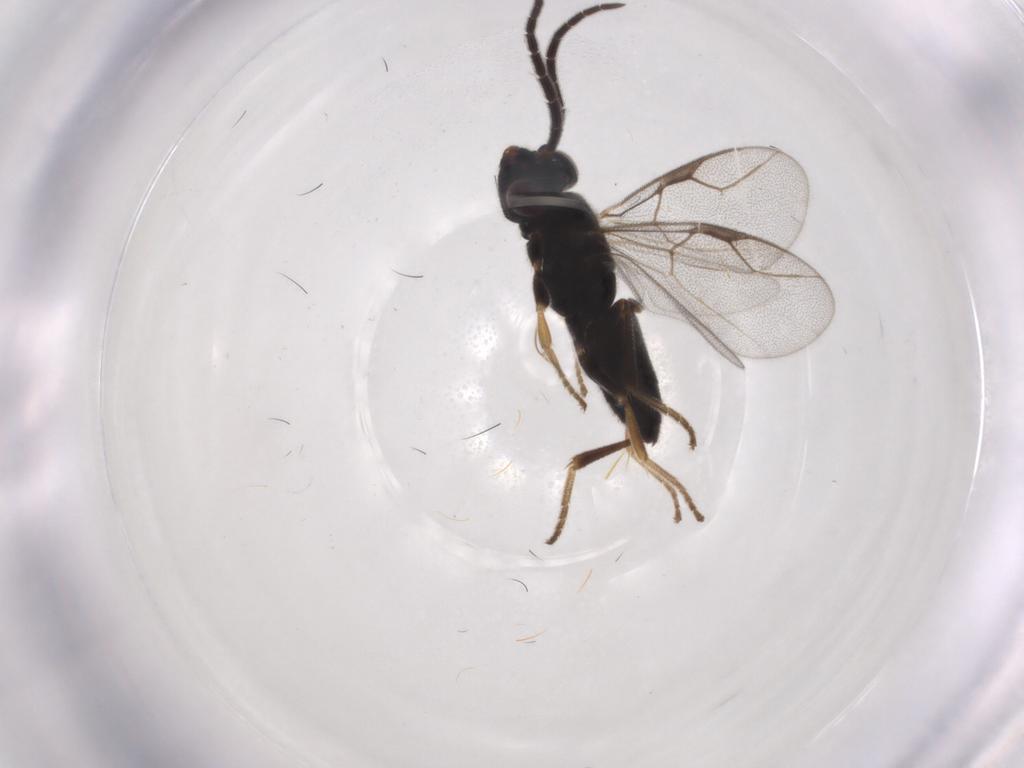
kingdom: Animalia
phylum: Arthropoda
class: Insecta
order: Hymenoptera
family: Dryinidae
